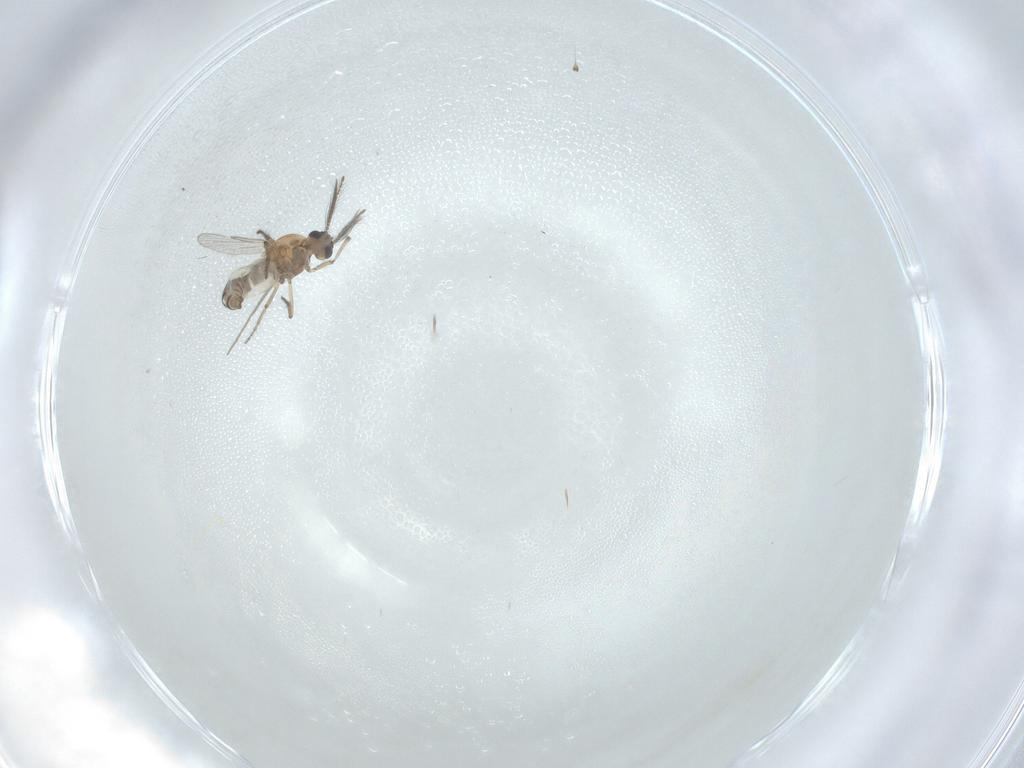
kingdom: Animalia
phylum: Arthropoda
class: Insecta
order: Diptera
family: Ceratopogonidae
